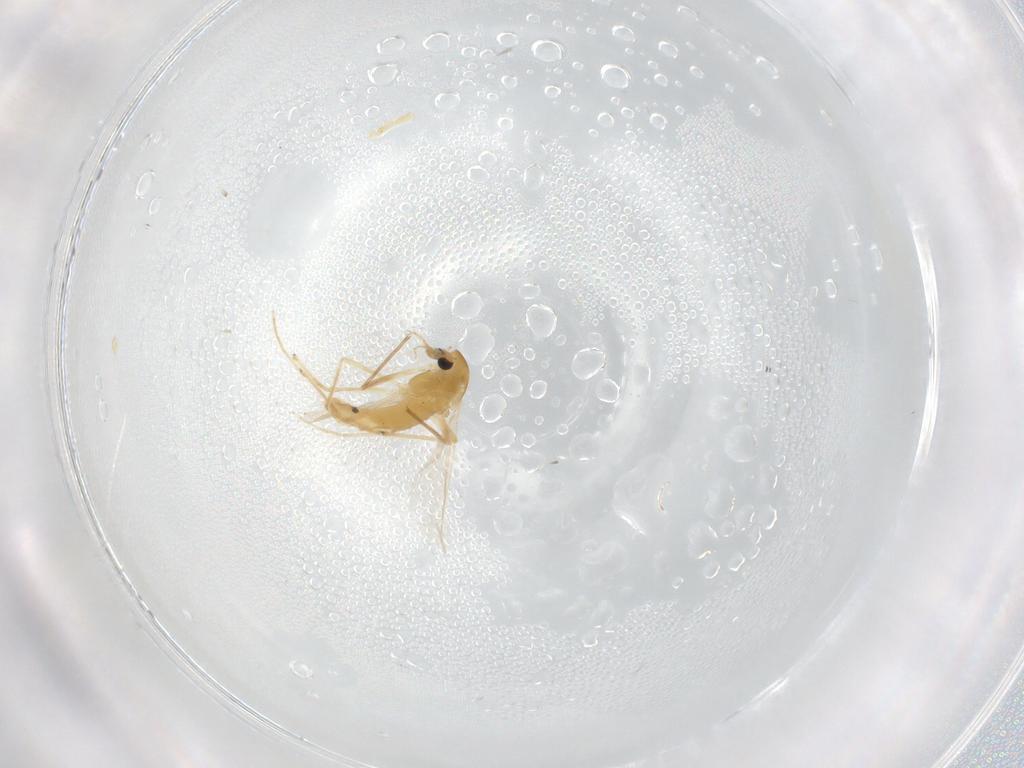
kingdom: Animalia
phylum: Arthropoda
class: Insecta
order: Diptera
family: Chironomidae
